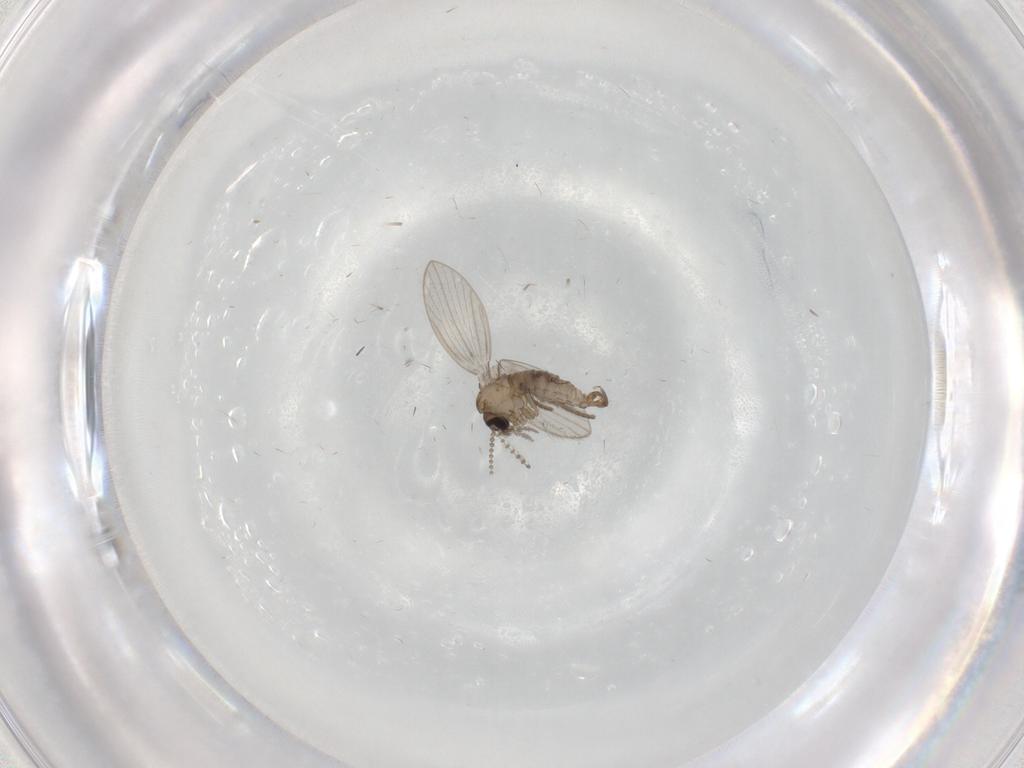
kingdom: Animalia
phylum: Arthropoda
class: Insecta
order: Diptera
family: Psychodidae
